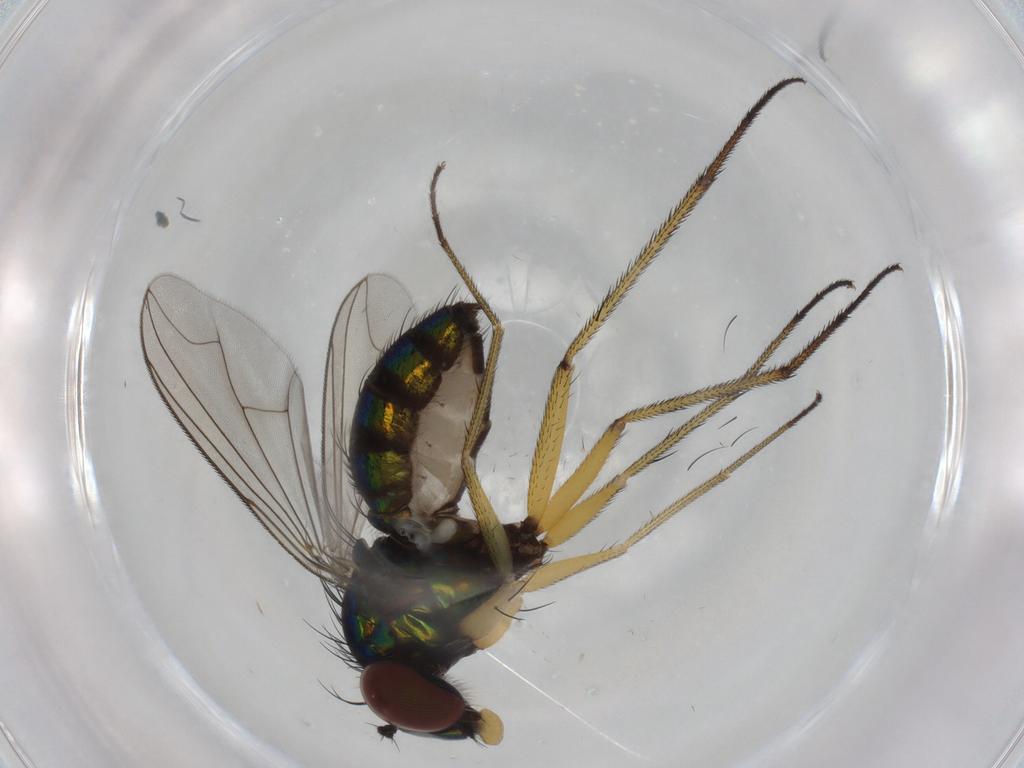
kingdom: Animalia
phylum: Arthropoda
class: Insecta
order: Diptera
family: Dolichopodidae
